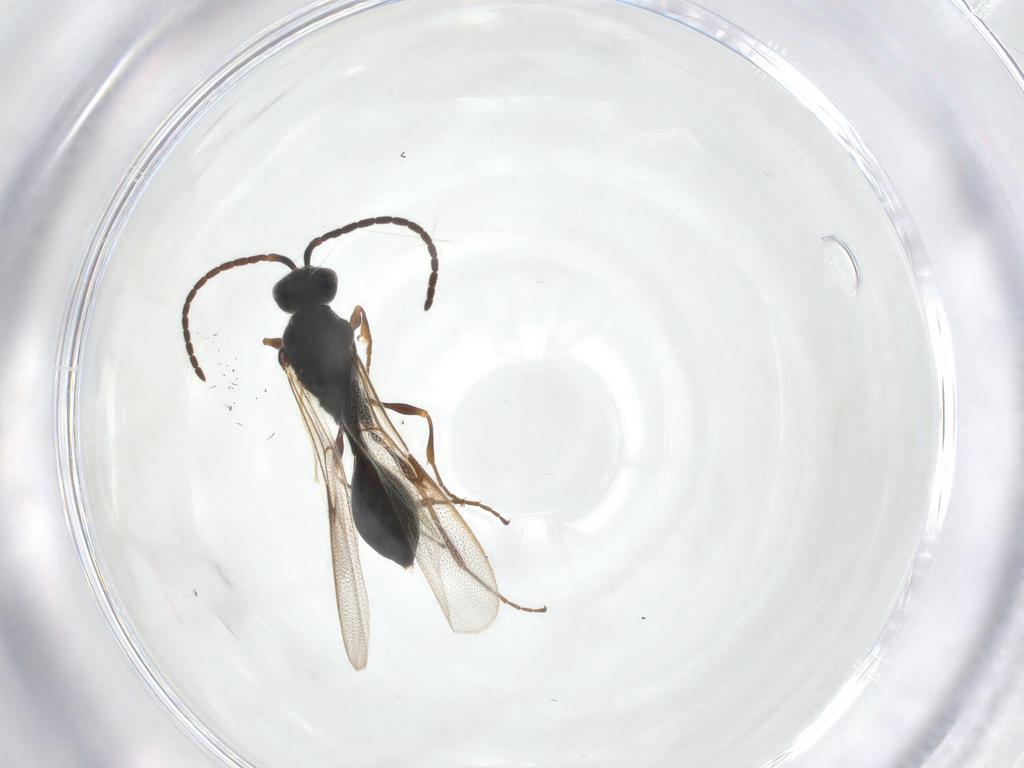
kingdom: Animalia
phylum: Arthropoda
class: Insecta
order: Hymenoptera
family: Diapriidae
